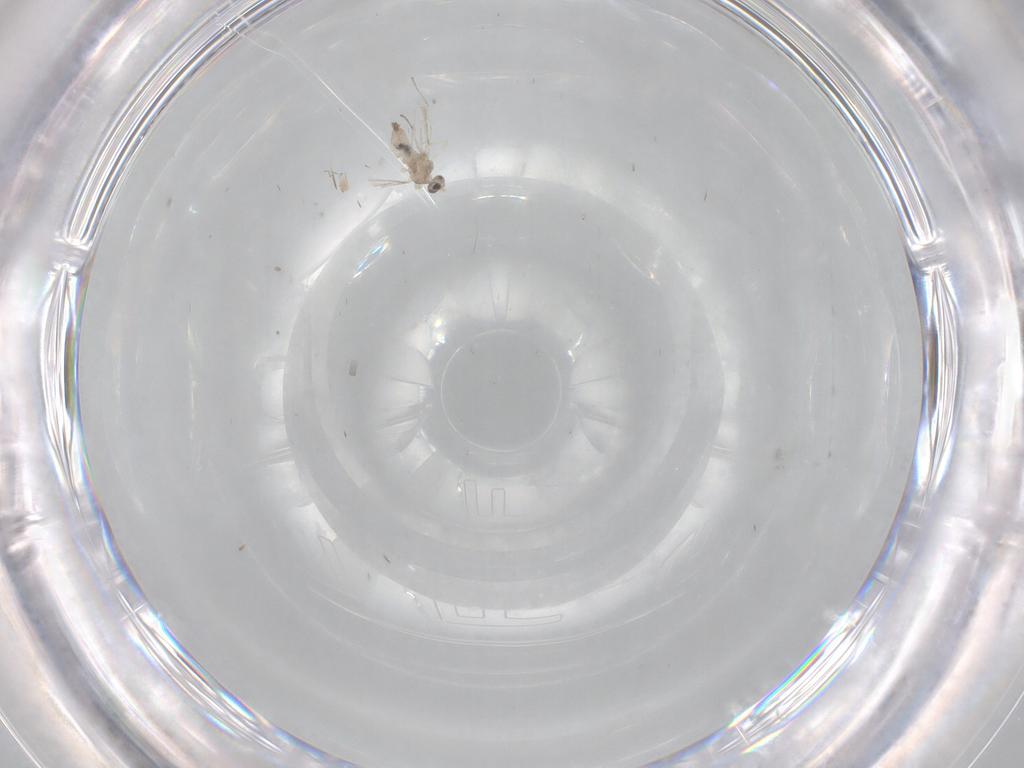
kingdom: Animalia
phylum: Arthropoda
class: Insecta
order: Diptera
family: Cecidomyiidae
